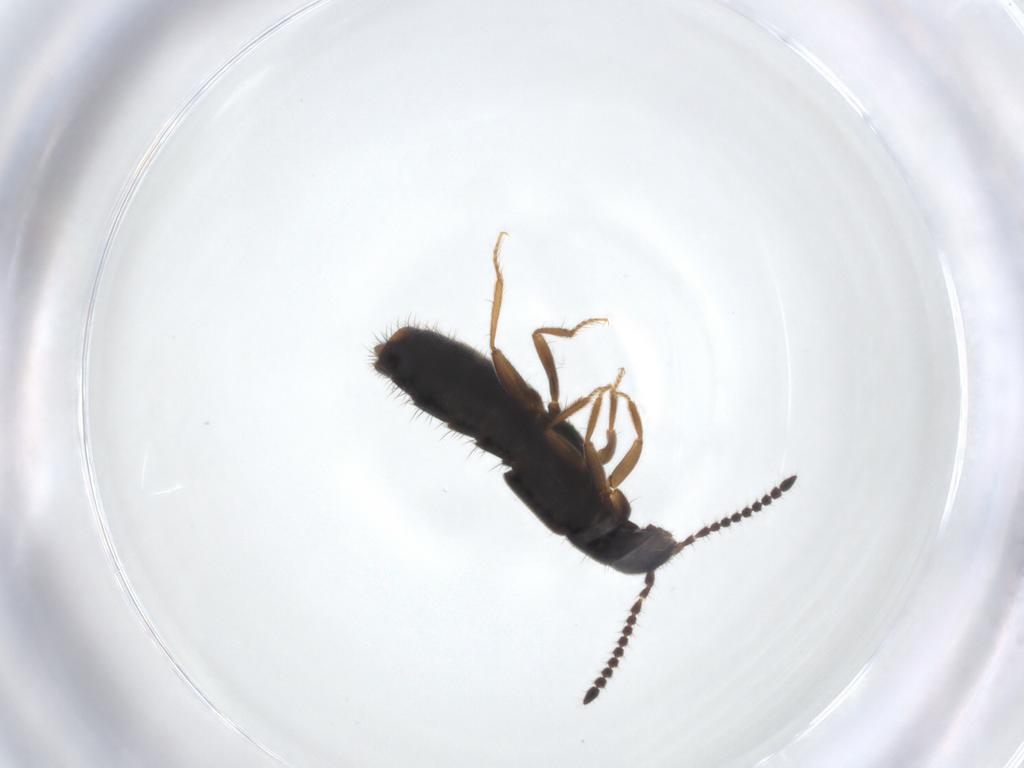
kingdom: Animalia
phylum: Arthropoda
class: Insecta
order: Coleoptera
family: Staphylinidae
